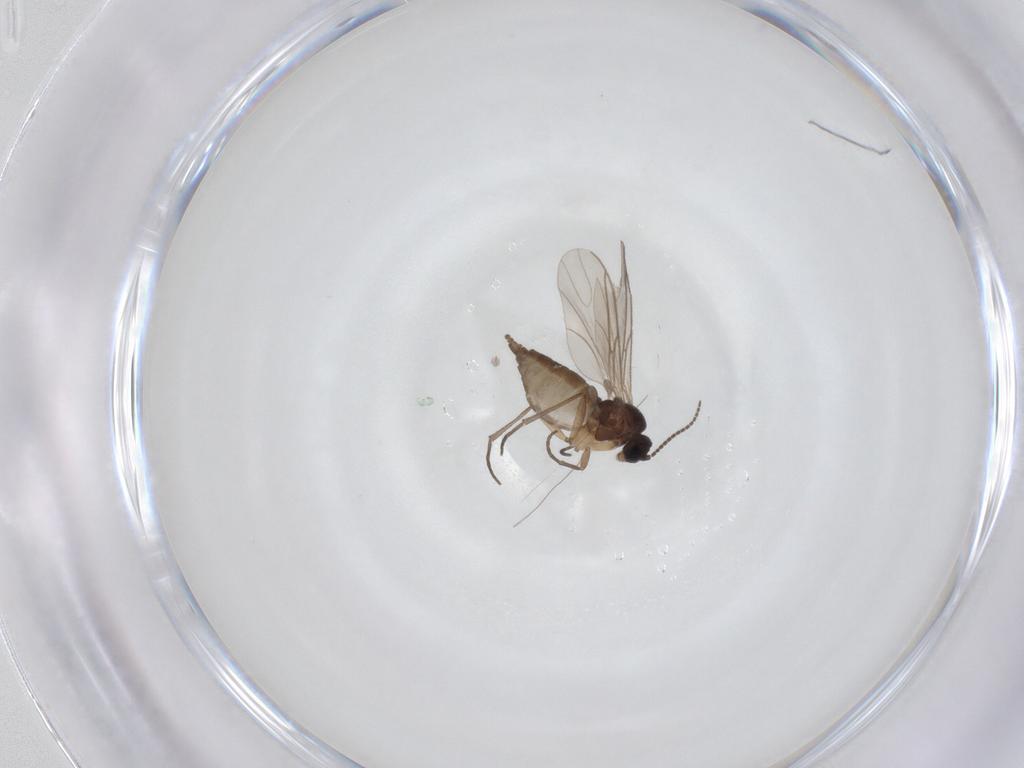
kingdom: Animalia
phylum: Arthropoda
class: Insecta
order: Diptera
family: Sciaridae
